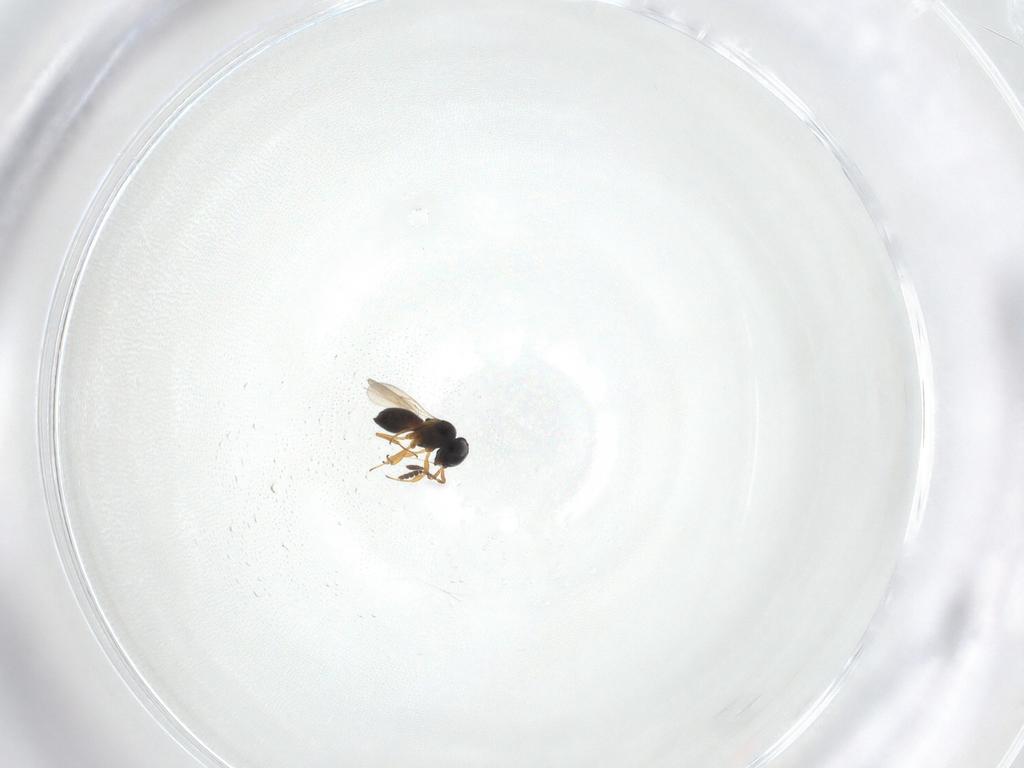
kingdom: Animalia
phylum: Arthropoda
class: Insecta
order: Hymenoptera
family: Scelionidae
